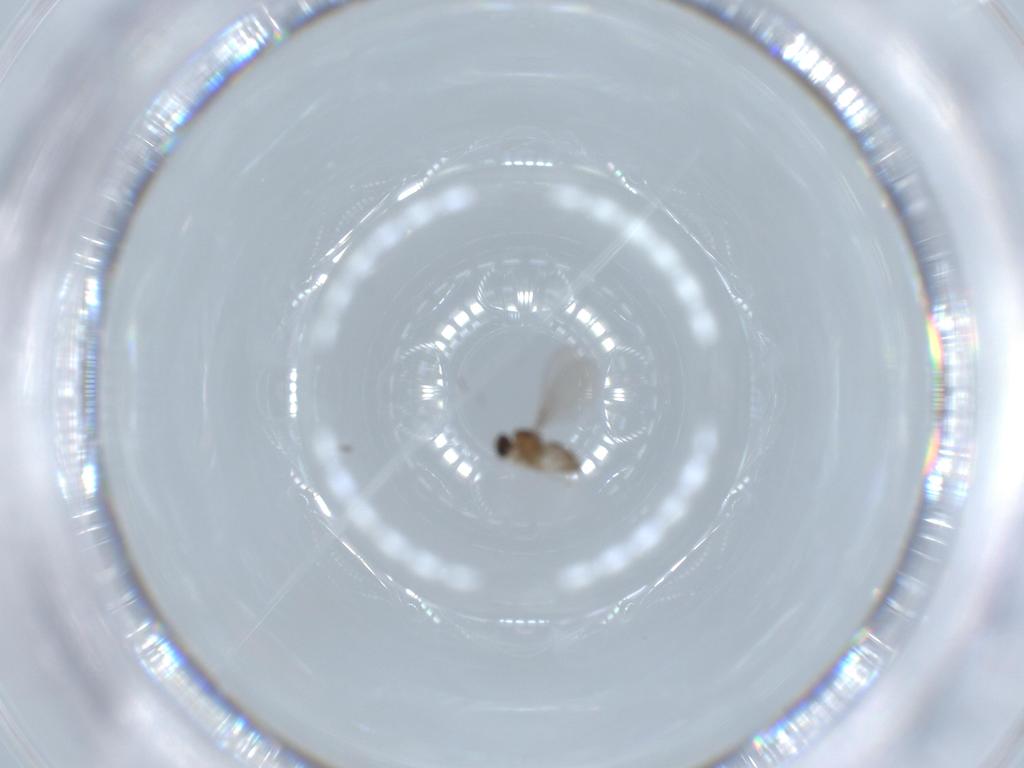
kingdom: Animalia
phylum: Arthropoda
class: Insecta
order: Diptera
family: Cecidomyiidae
